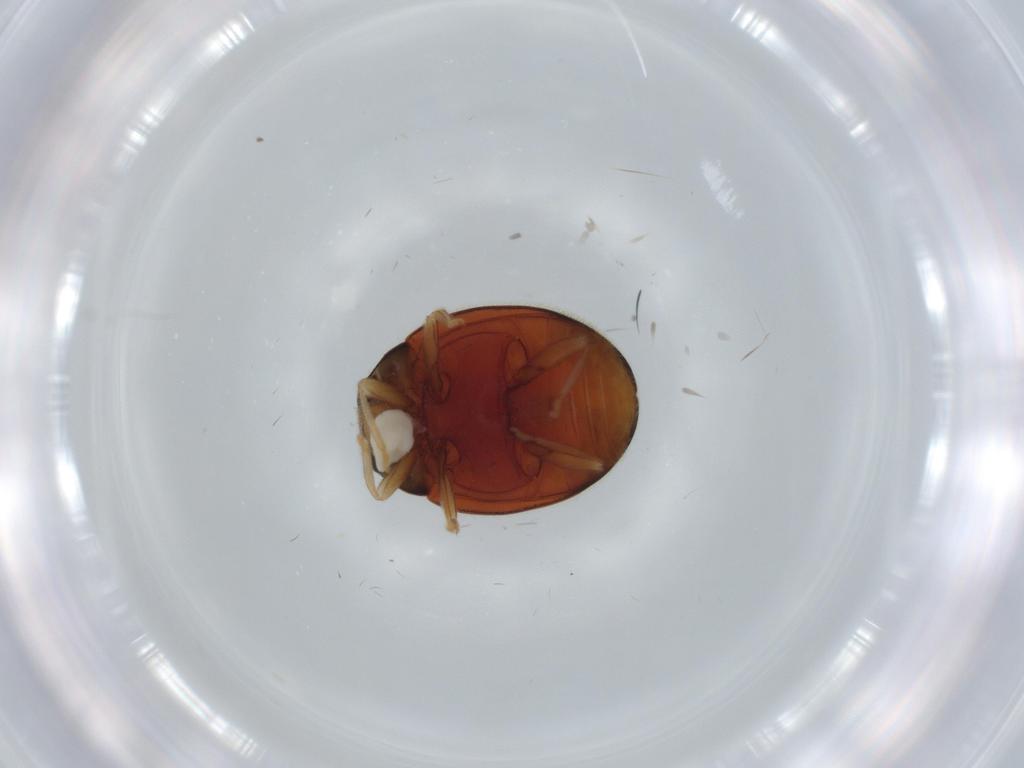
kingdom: Animalia
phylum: Arthropoda
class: Insecta
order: Coleoptera
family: Coccinellidae
